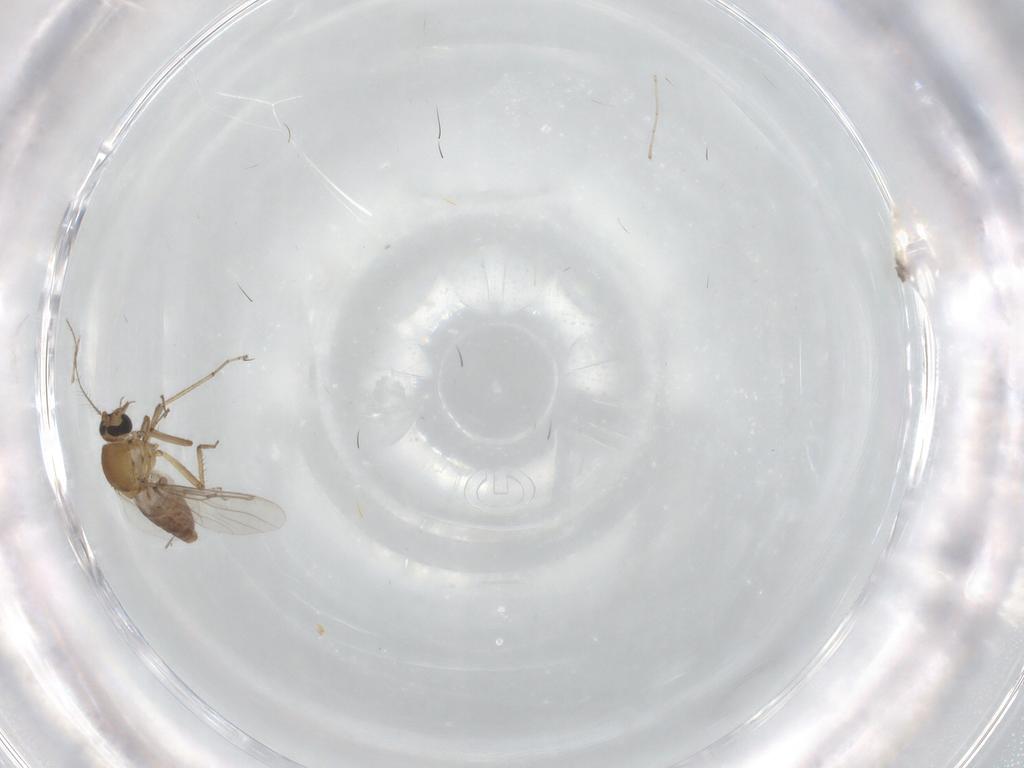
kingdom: Animalia
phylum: Arthropoda
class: Insecta
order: Diptera
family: Ceratopogonidae
